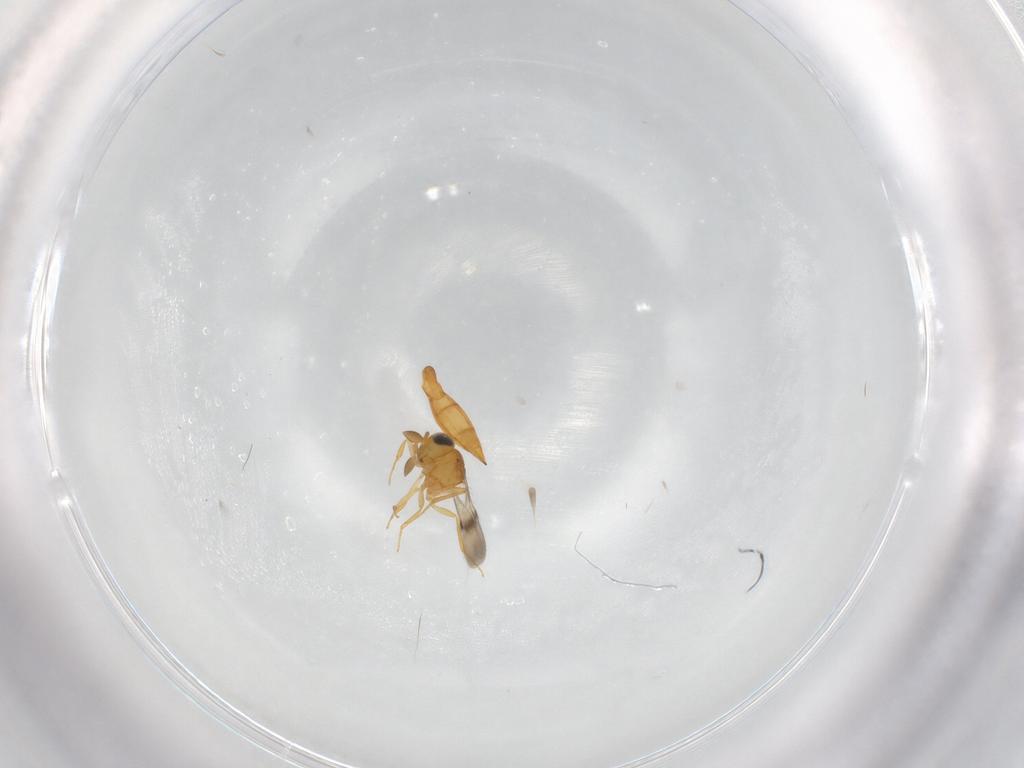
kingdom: Animalia
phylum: Arthropoda
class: Insecta
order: Hymenoptera
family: Scelionidae
